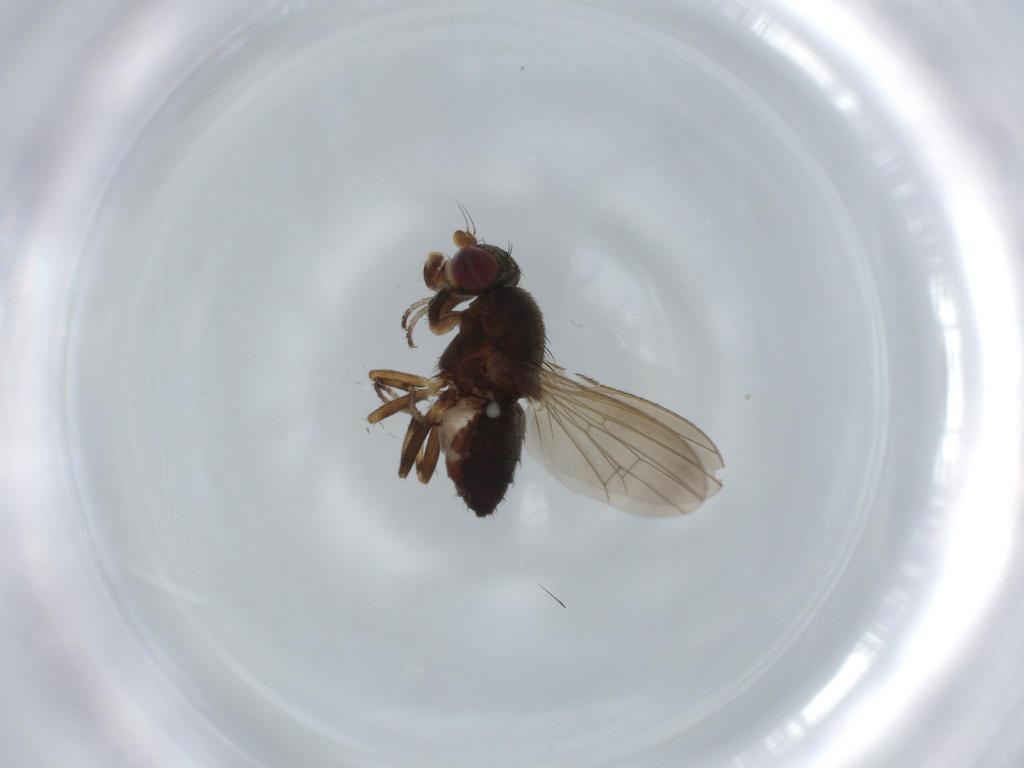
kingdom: Animalia
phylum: Arthropoda
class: Insecta
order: Diptera
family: Heleomyzidae
